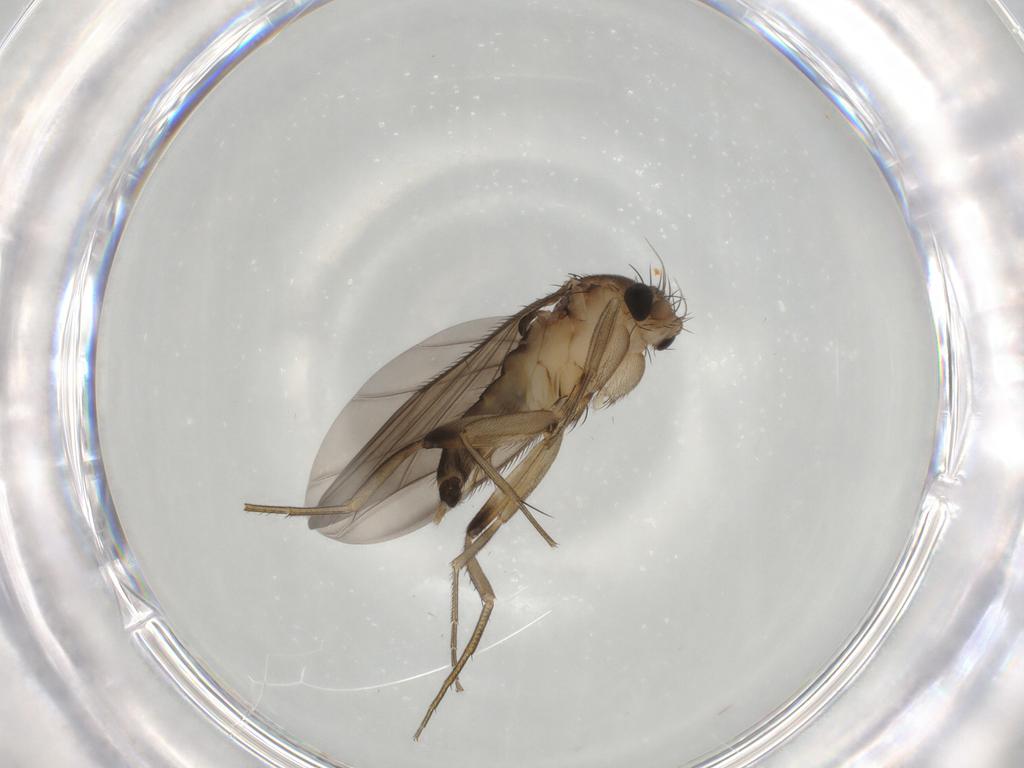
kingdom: Animalia
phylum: Arthropoda
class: Insecta
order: Diptera
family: Phoridae
